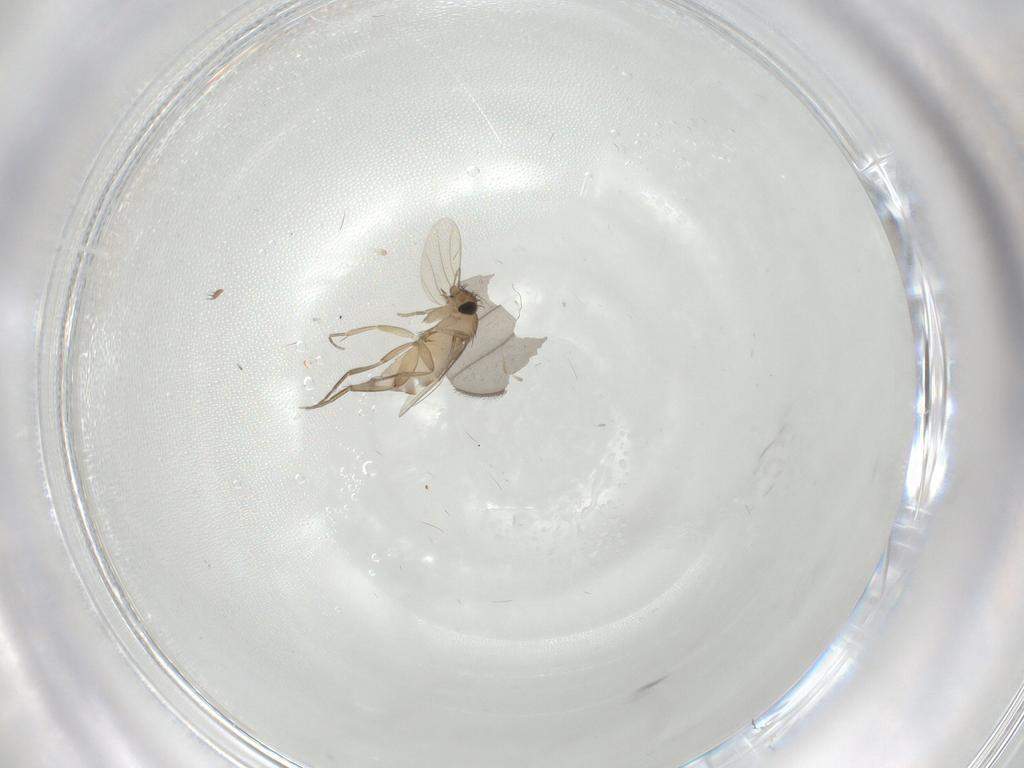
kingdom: Animalia
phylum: Arthropoda
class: Insecta
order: Diptera
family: Phoridae
